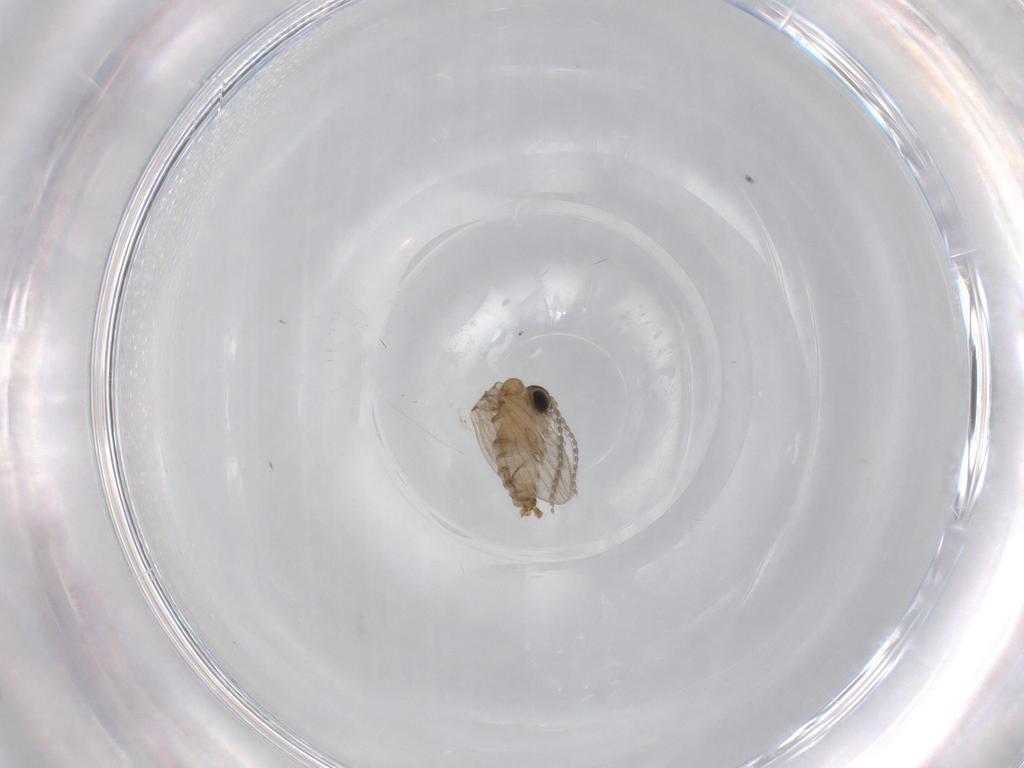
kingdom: Animalia
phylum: Arthropoda
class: Insecta
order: Diptera
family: Psychodidae
